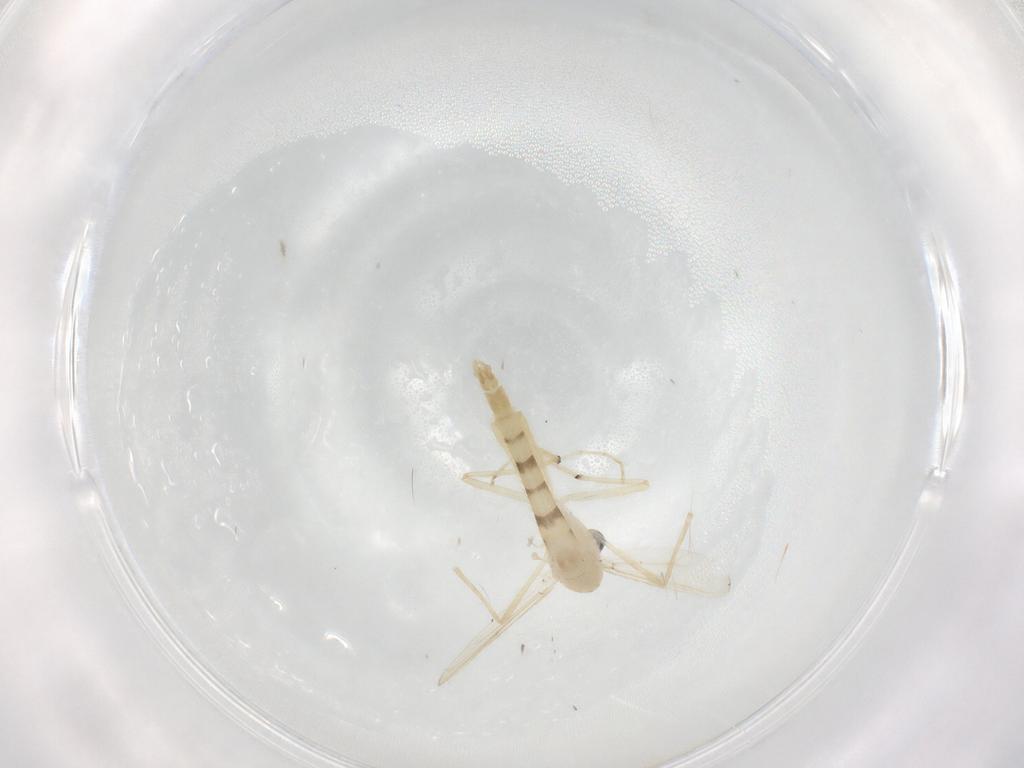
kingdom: Animalia
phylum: Arthropoda
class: Insecta
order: Diptera
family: Chironomidae
